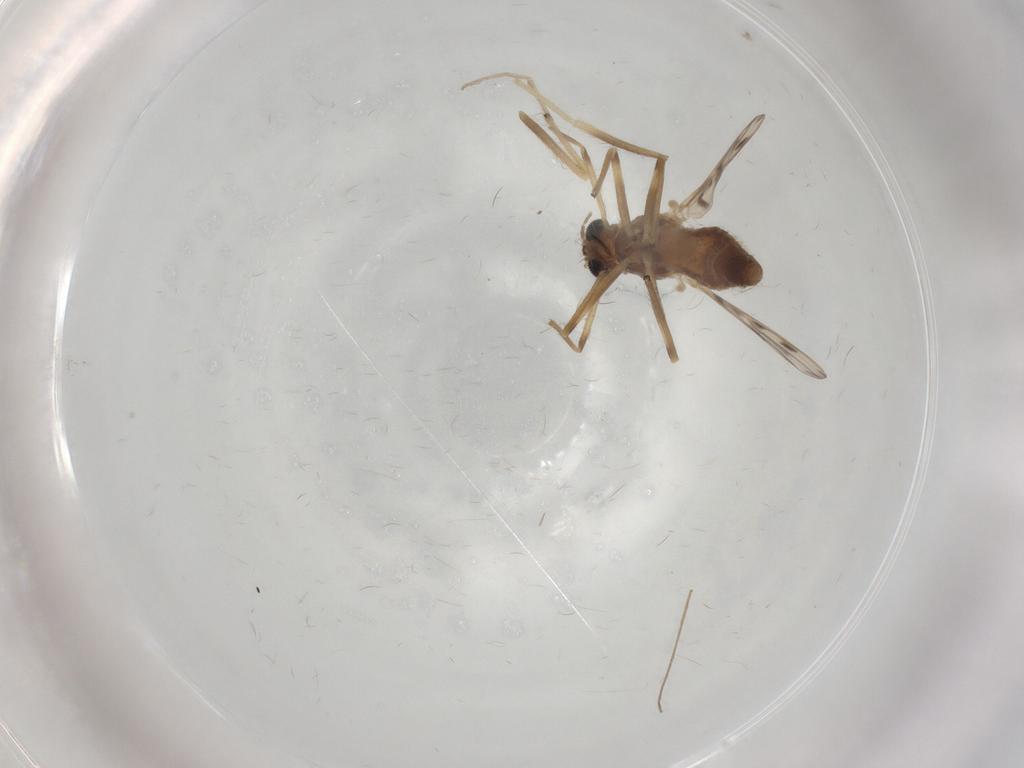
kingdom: Animalia
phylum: Arthropoda
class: Insecta
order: Diptera
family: Chironomidae
